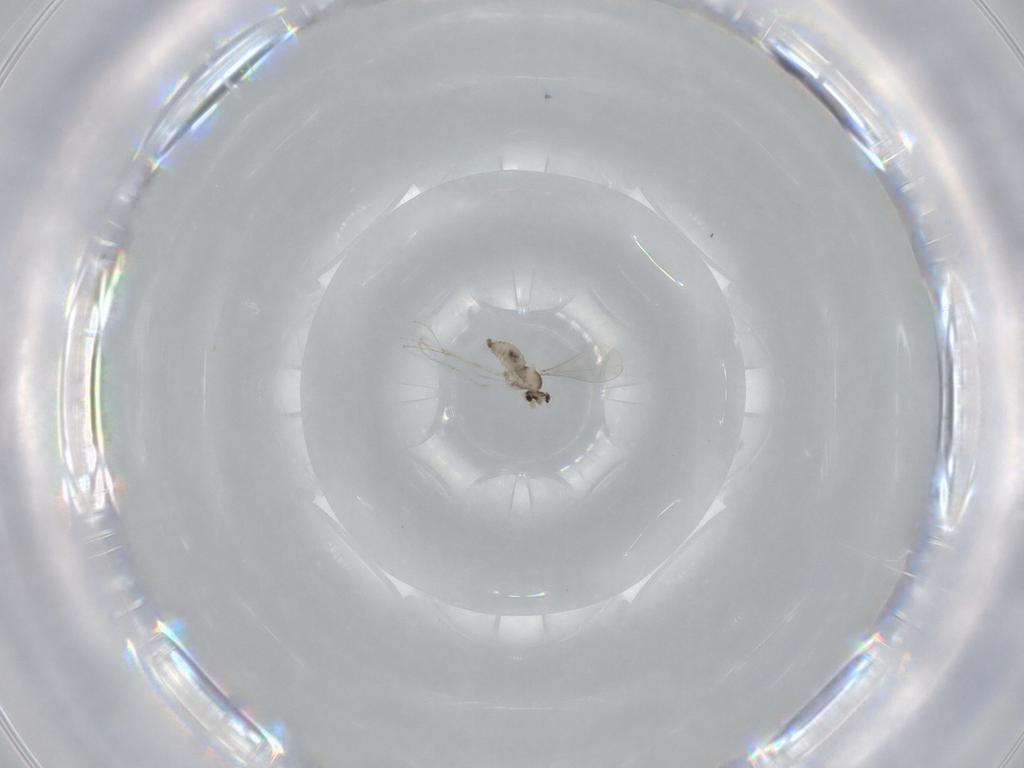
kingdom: Animalia
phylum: Arthropoda
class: Insecta
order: Diptera
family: Cecidomyiidae
